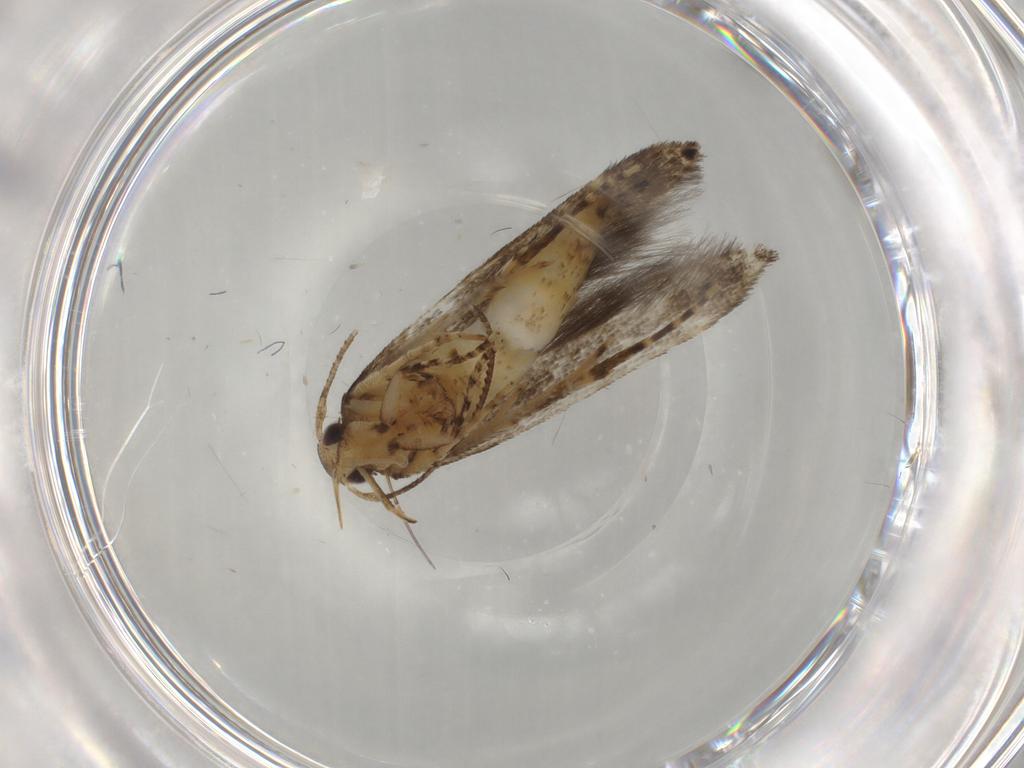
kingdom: Animalia
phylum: Arthropoda
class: Insecta
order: Lepidoptera
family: Cosmopterigidae
